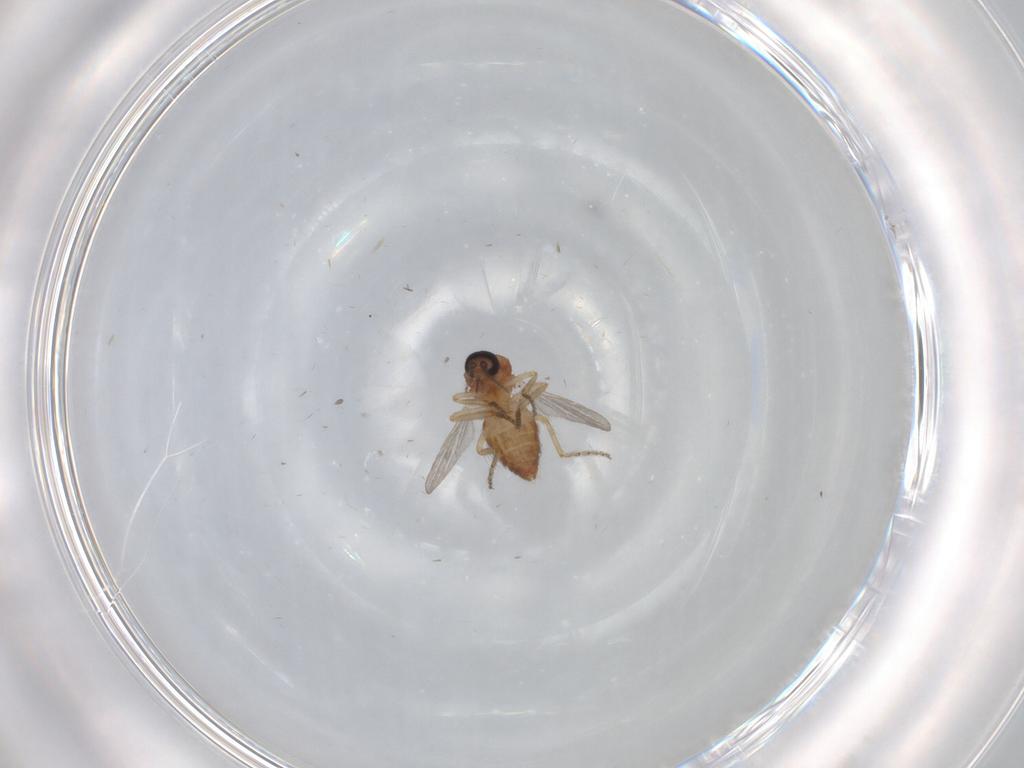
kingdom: Animalia
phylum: Arthropoda
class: Insecta
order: Diptera
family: Ceratopogonidae
